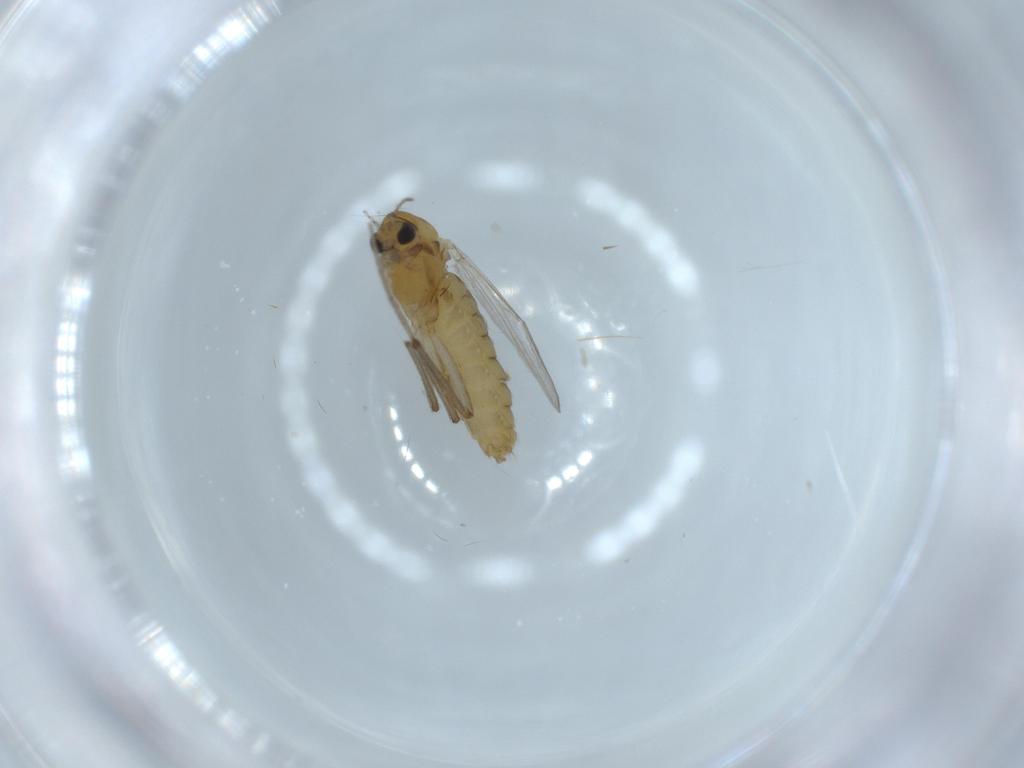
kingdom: Animalia
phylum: Arthropoda
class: Insecta
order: Diptera
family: Chironomidae
